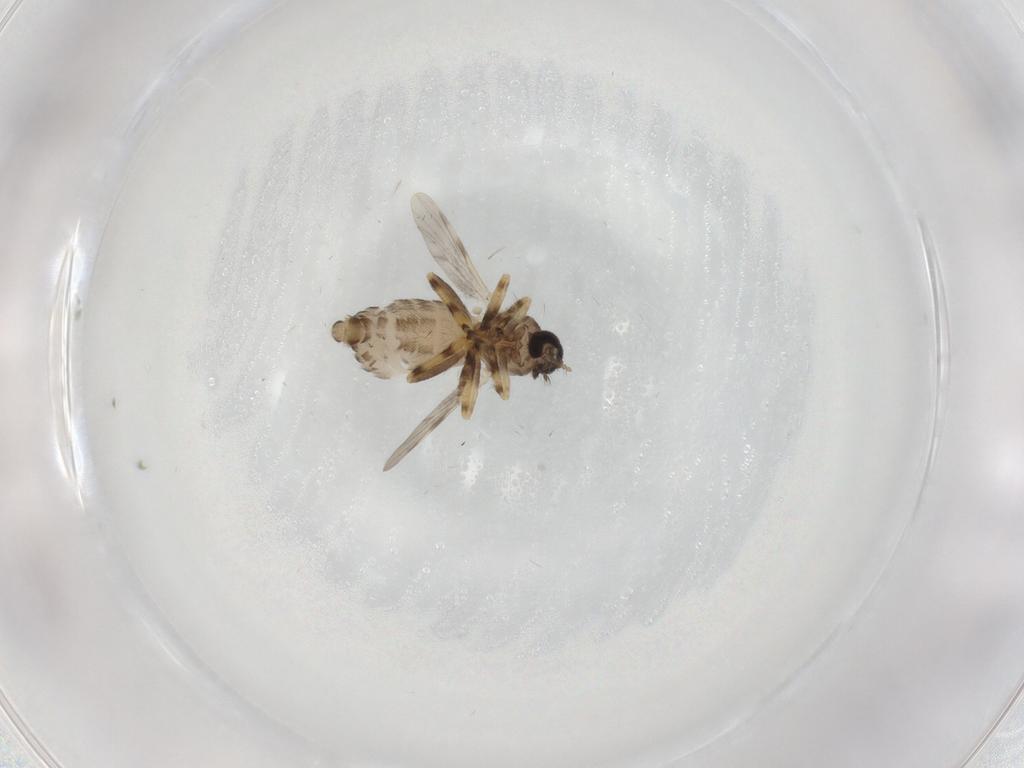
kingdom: Animalia
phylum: Arthropoda
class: Insecta
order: Diptera
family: Ceratopogonidae
